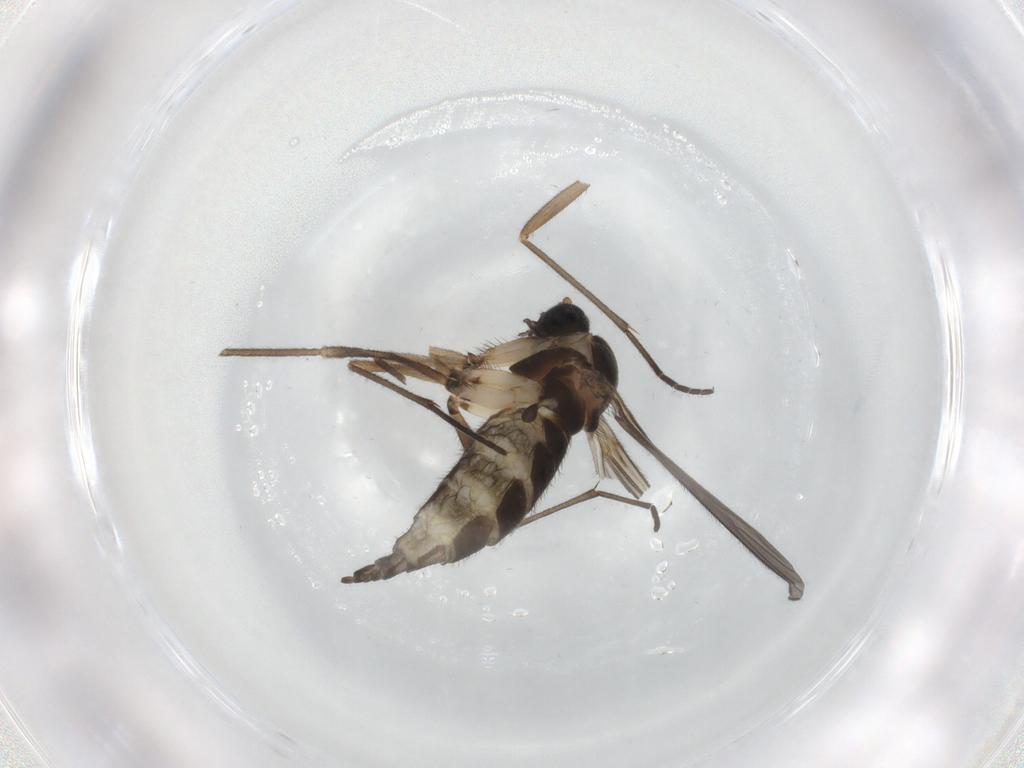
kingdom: Animalia
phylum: Arthropoda
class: Insecta
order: Diptera
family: Sciaridae
